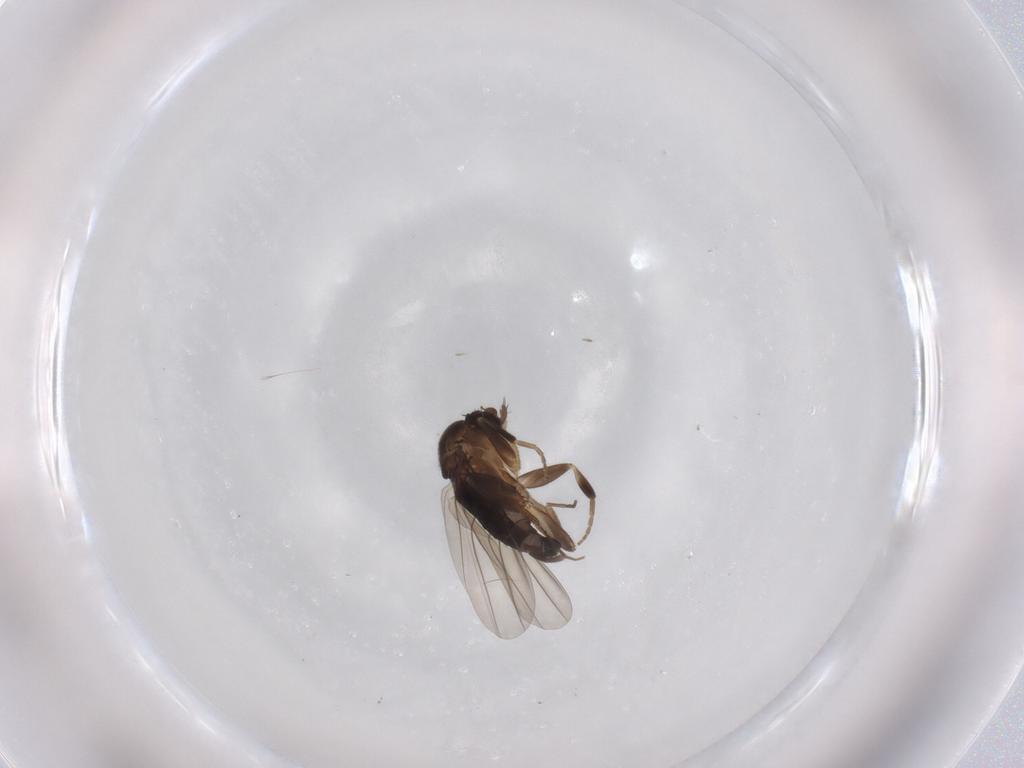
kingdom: Animalia
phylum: Arthropoda
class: Insecta
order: Diptera
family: Phoridae
